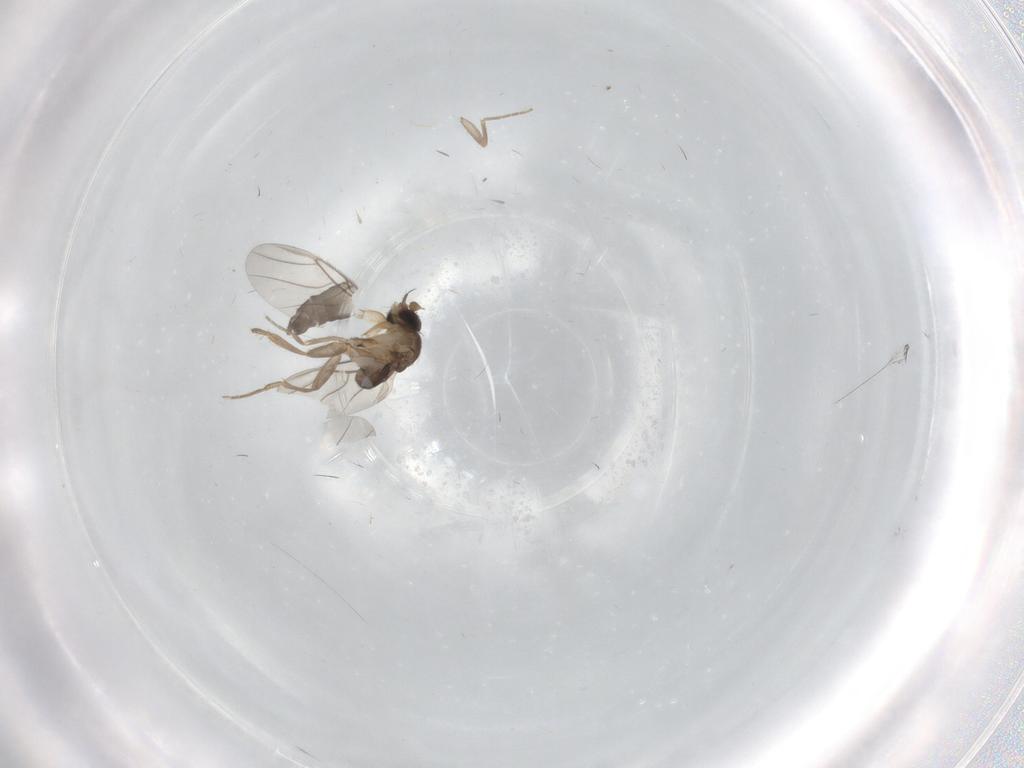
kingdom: Animalia
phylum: Arthropoda
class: Insecta
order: Diptera
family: Phoridae
